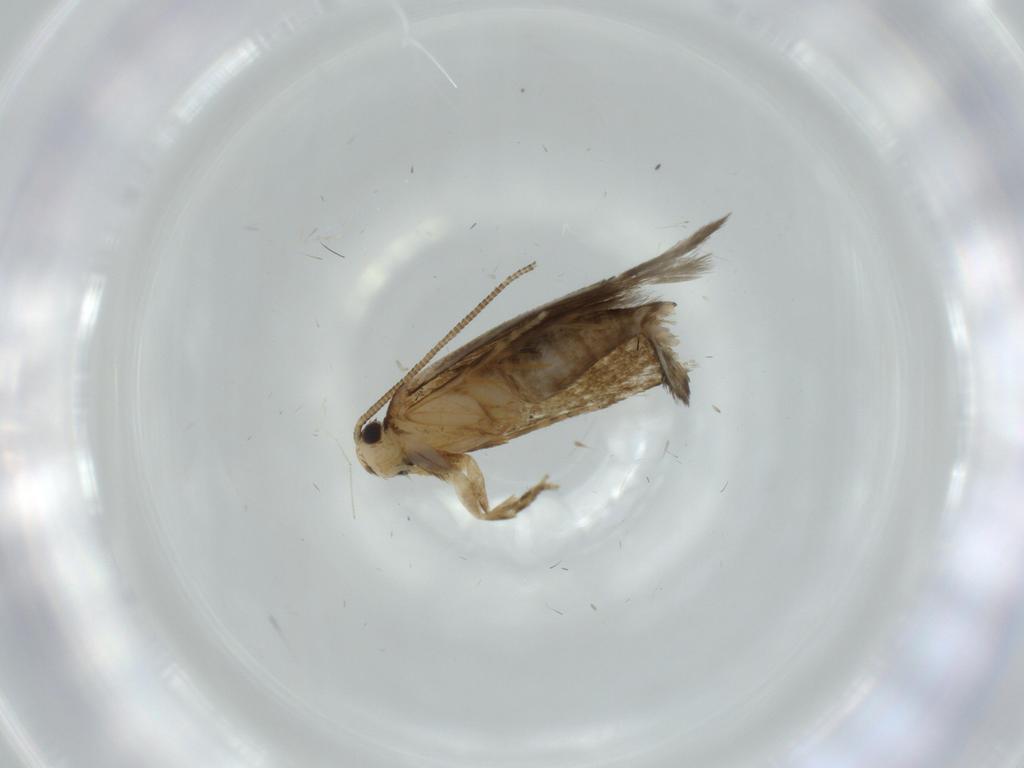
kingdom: Animalia
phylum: Arthropoda
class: Insecta
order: Lepidoptera
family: Tineidae
